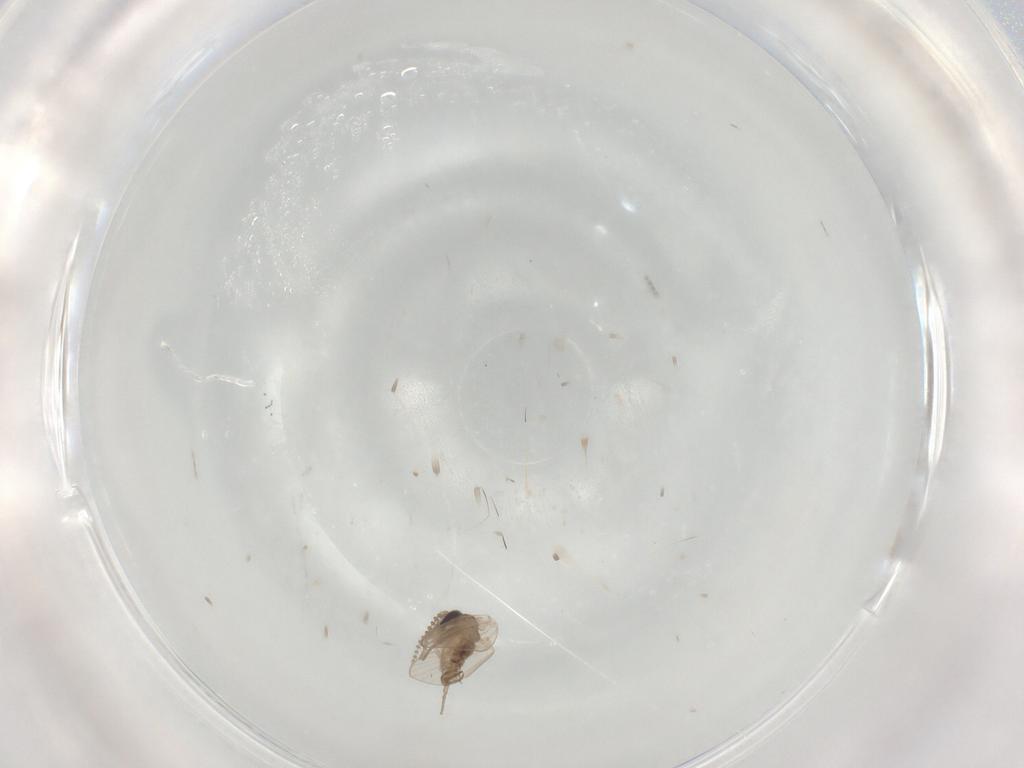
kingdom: Animalia
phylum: Arthropoda
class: Insecta
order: Diptera
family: Psychodidae
